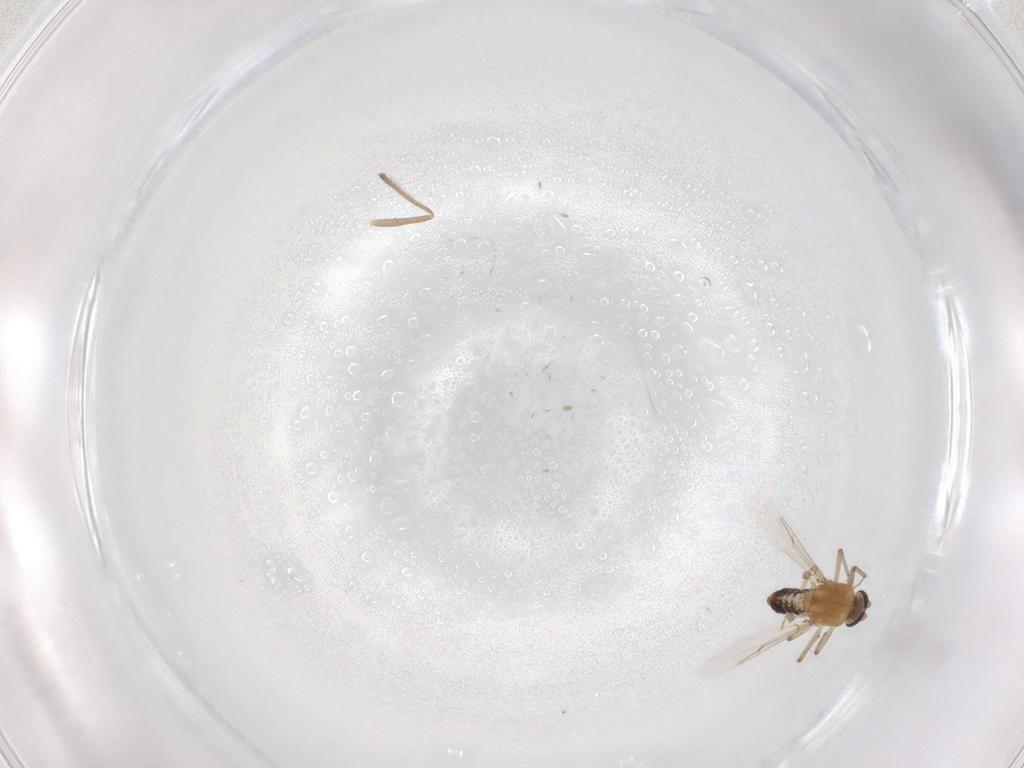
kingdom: Animalia
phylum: Arthropoda
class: Insecta
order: Diptera
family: Chironomidae
